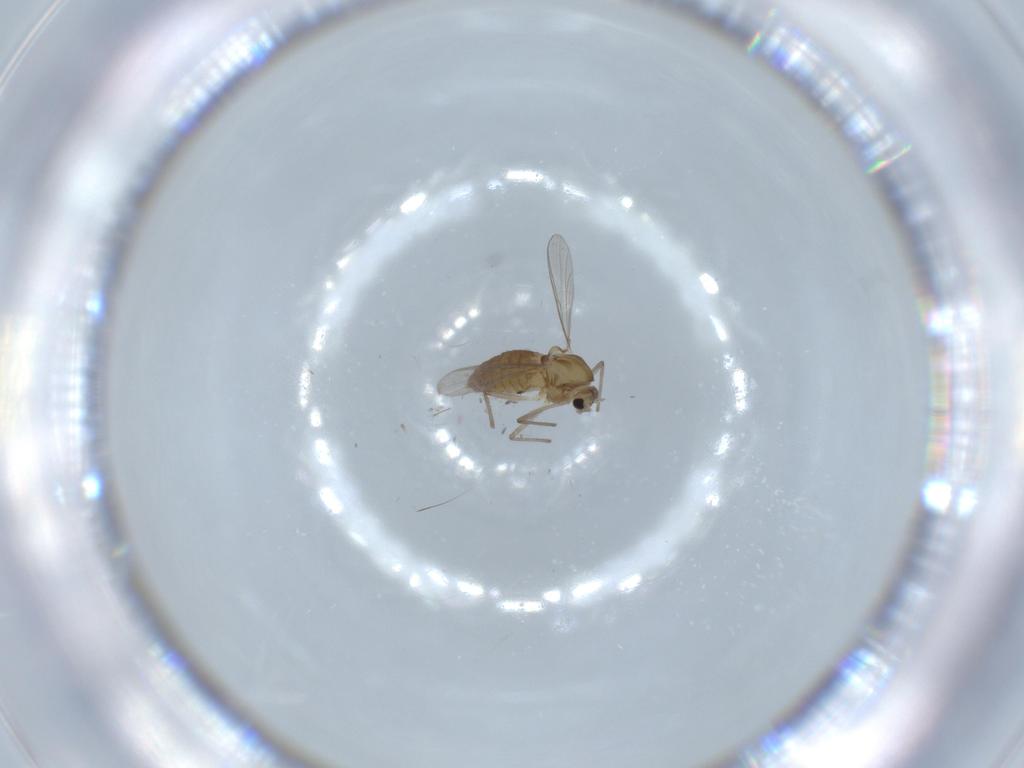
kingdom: Animalia
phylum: Arthropoda
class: Insecta
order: Diptera
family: Chironomidae
